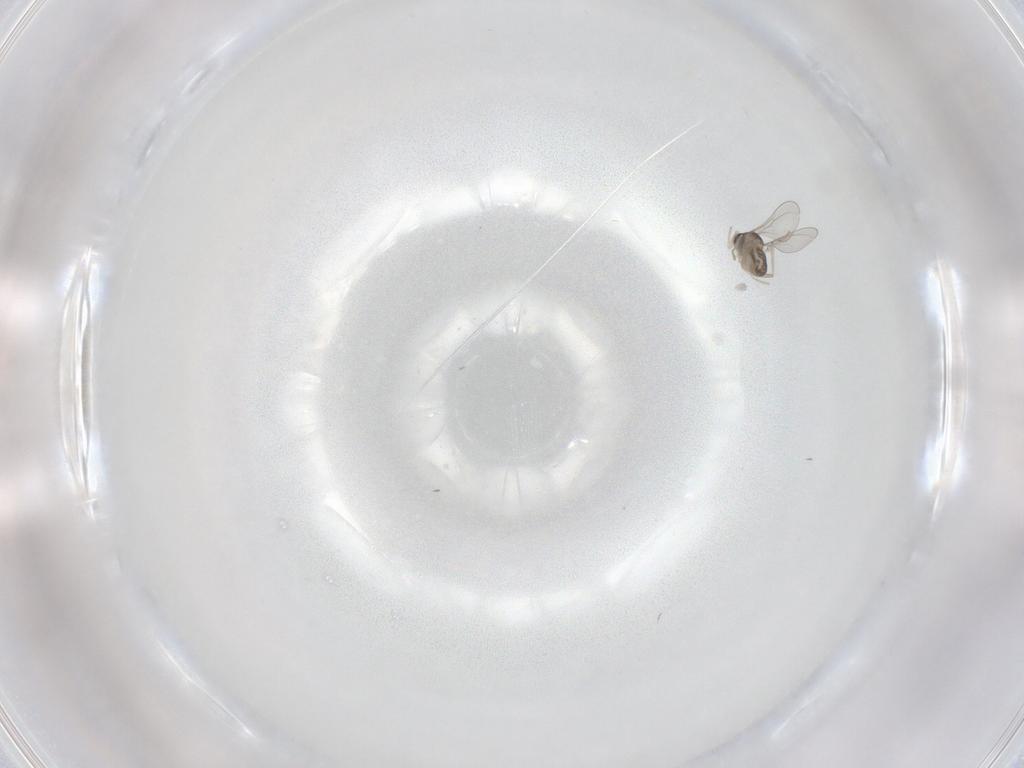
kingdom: Animalia
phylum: Arthropoda
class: Insecta
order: Diptera
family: Cecidomyiidae
